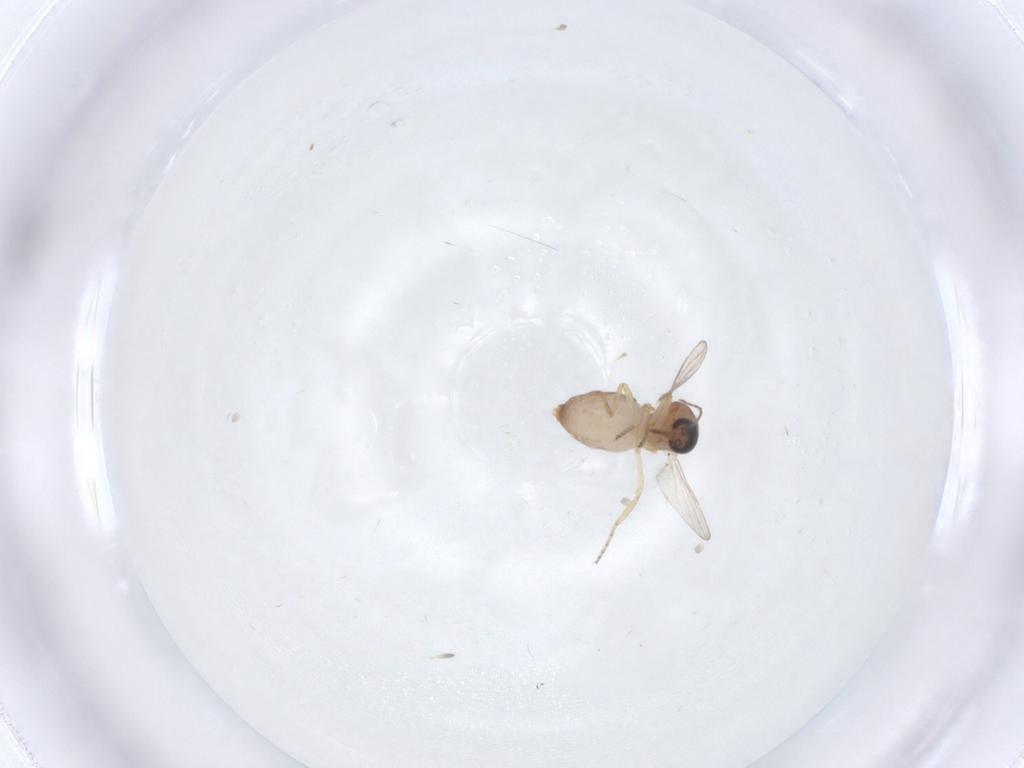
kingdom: Animalia
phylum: Arthropoda
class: Insecta
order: Diptera
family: Ceratopogonidae
